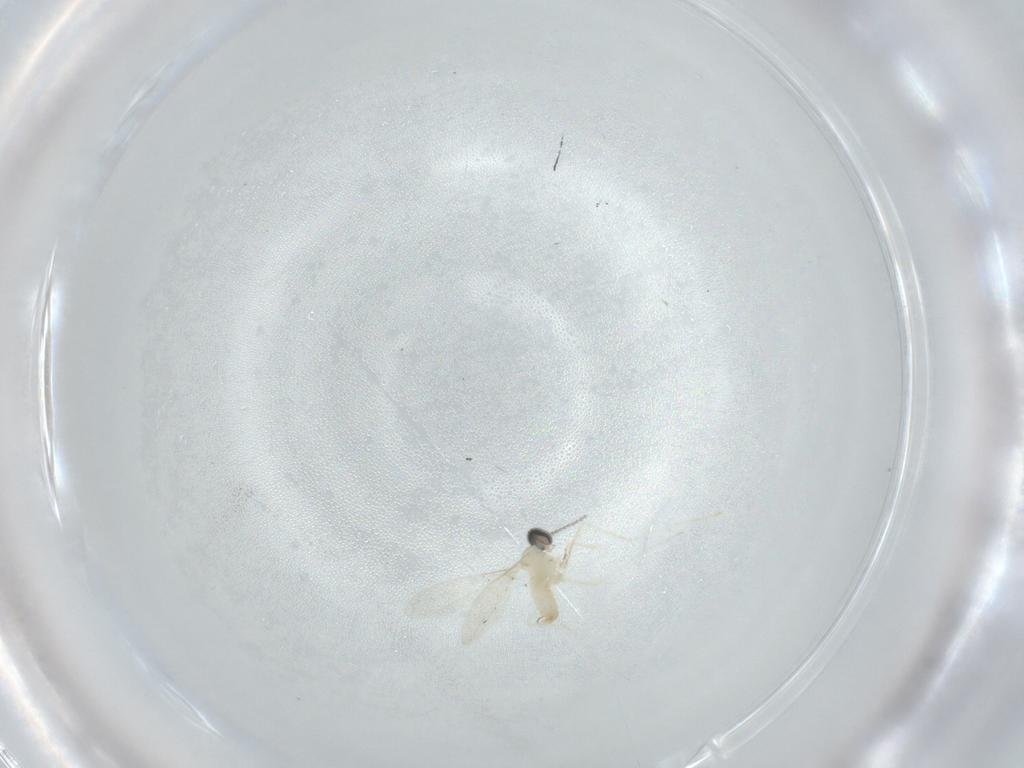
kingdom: Animalia
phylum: Arthropoda
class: Insecta
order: Diptera
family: Cecidomyiidae
